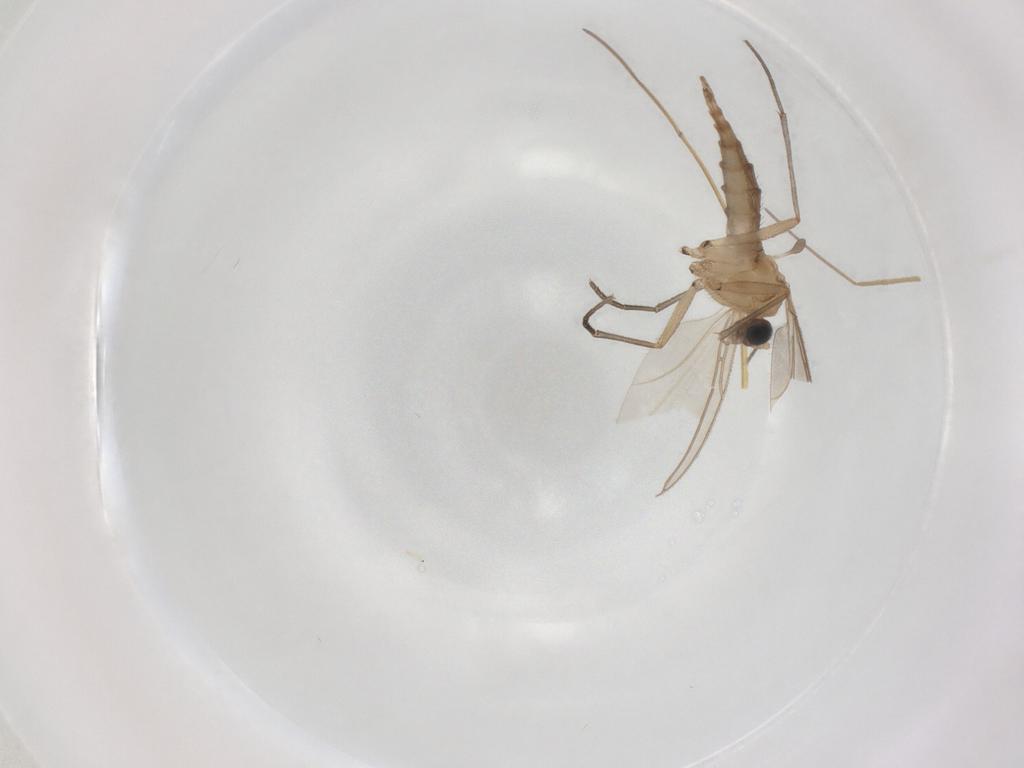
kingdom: Animalia
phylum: Arthropoda
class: Insecta
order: Diptera
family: Drosophilidae
